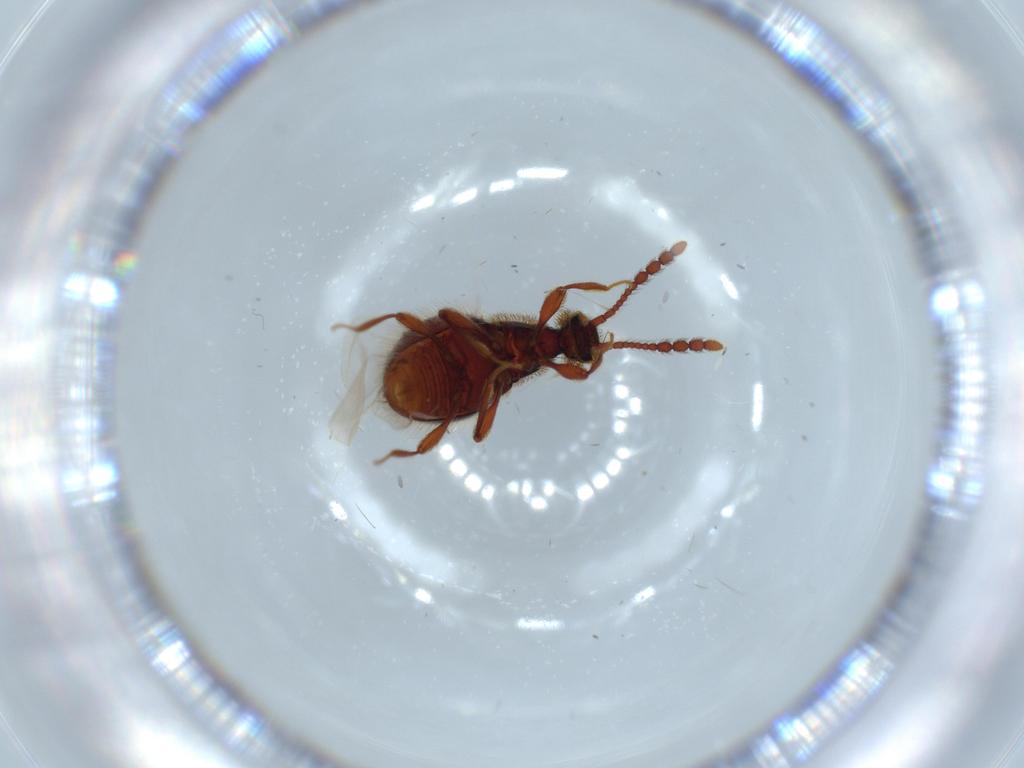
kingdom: Animalia
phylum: Arthropoda
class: Insecta
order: Coleoptera
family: Staphylinidae
